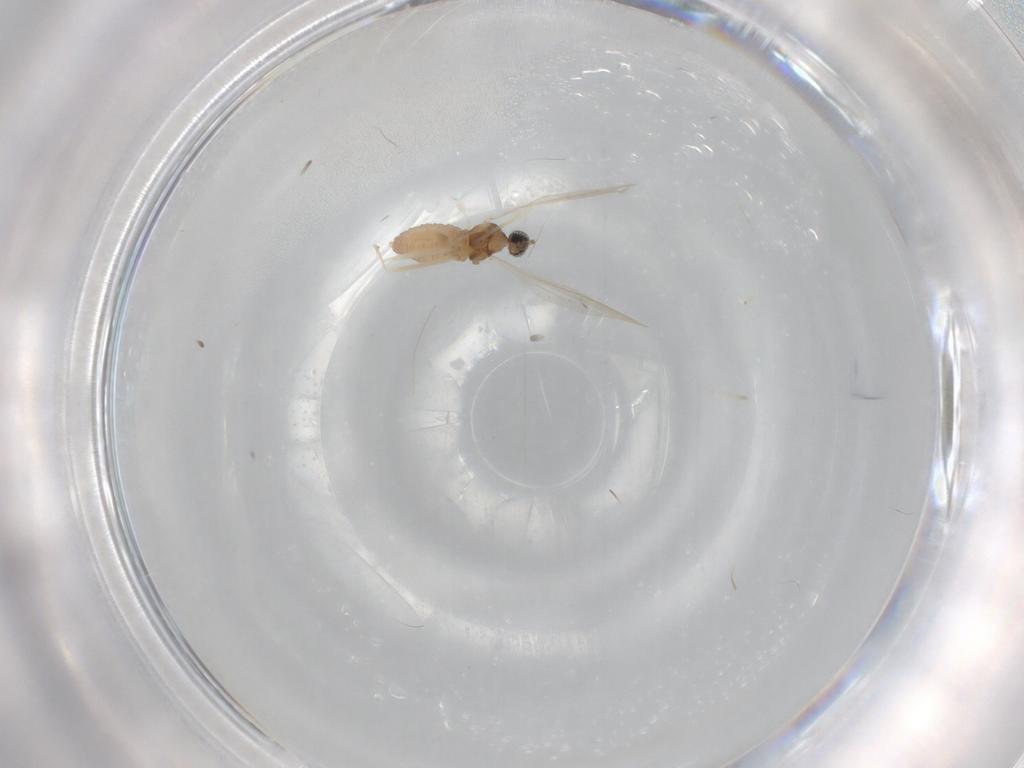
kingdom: Animalia
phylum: Arthropoda
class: Insecta
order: Diptera
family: Cecidomyiidae
